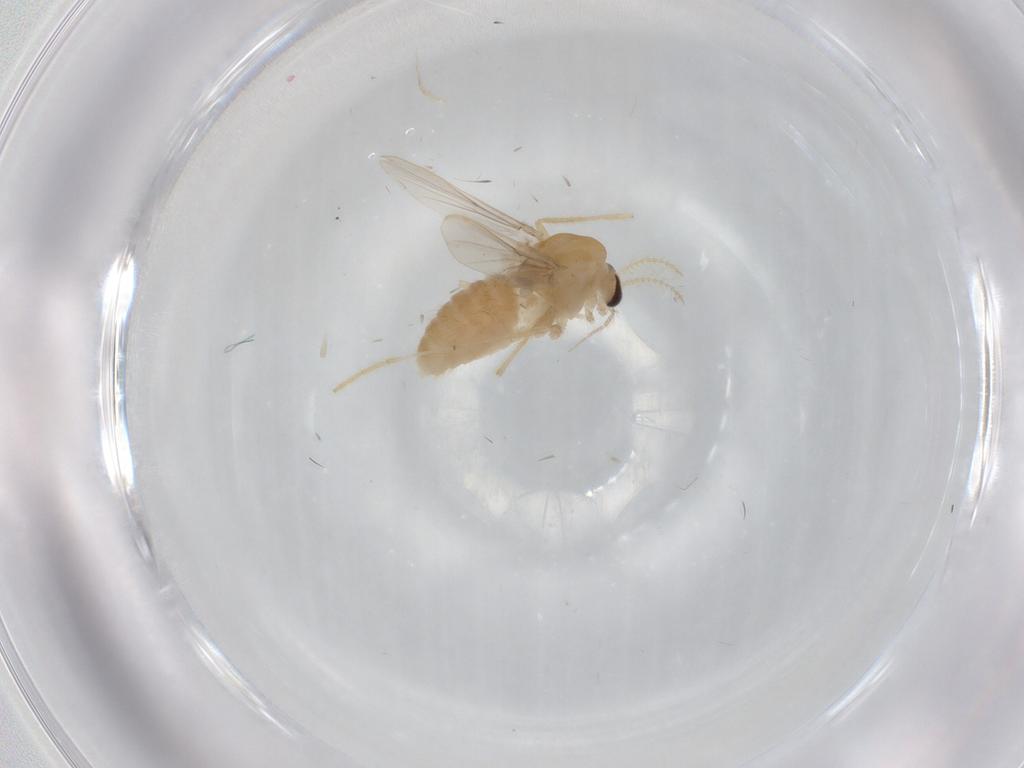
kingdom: Animalia
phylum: Arthropoda
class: Insecta
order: Diptera
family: Chironomidae
